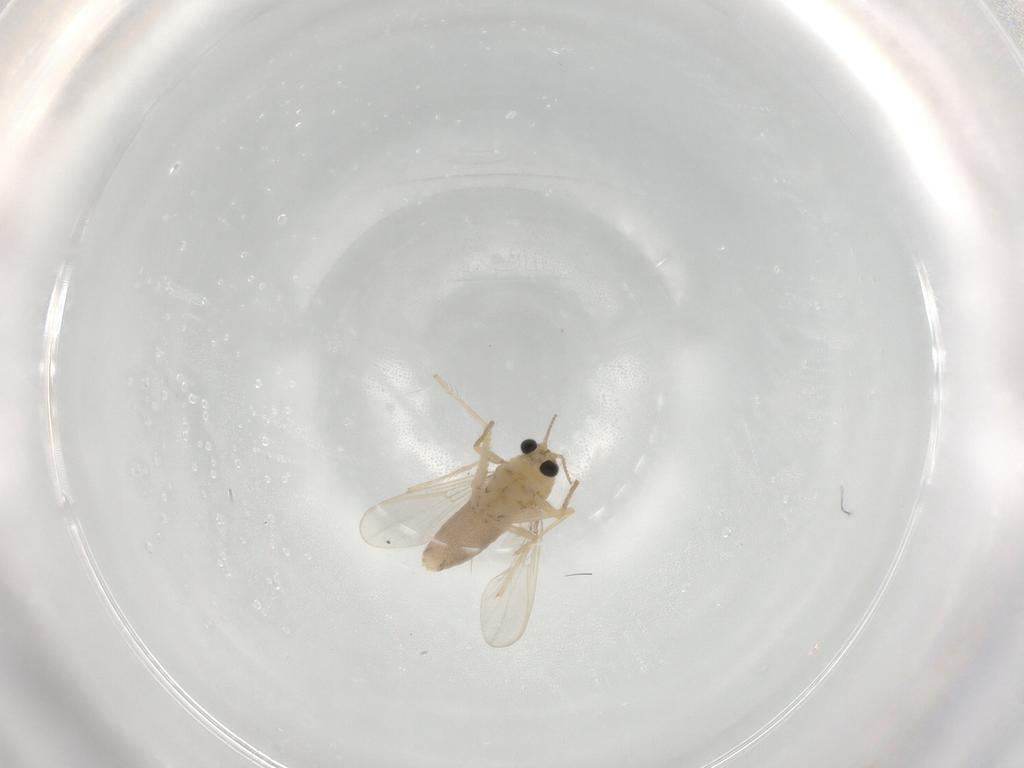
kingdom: Animalia
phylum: Arthropoda
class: Insecta
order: Diptera
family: Chironomidae
